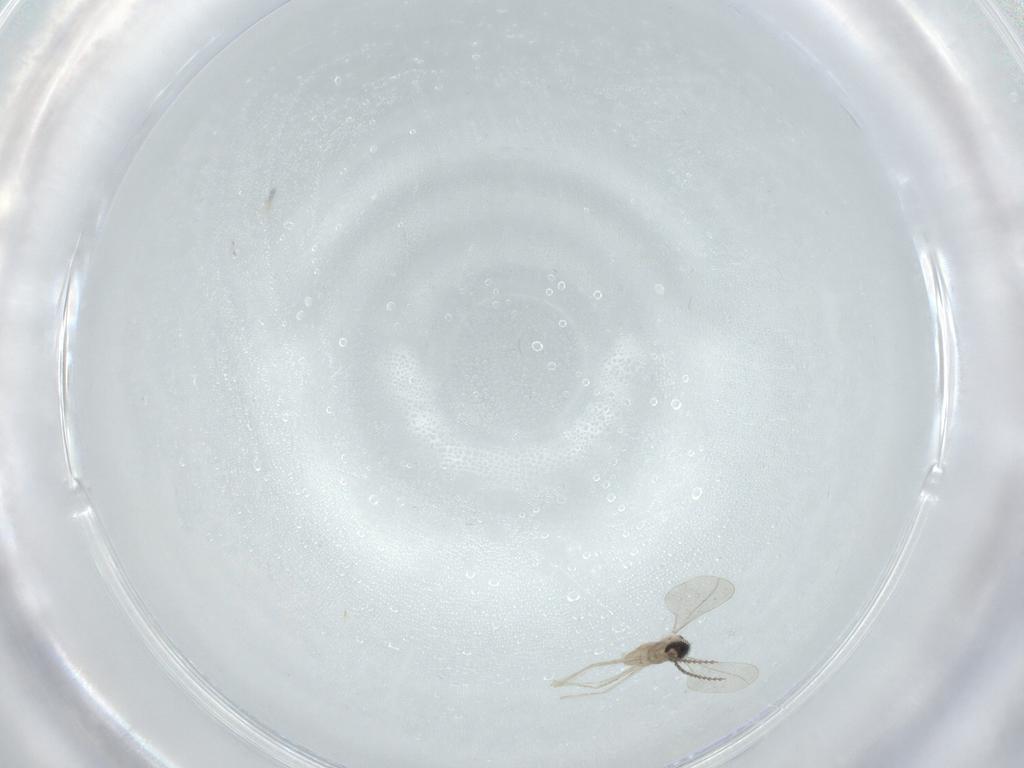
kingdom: Animalia
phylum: Arthropoda
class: Insecta
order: Diptera
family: Cecidomyiidae
